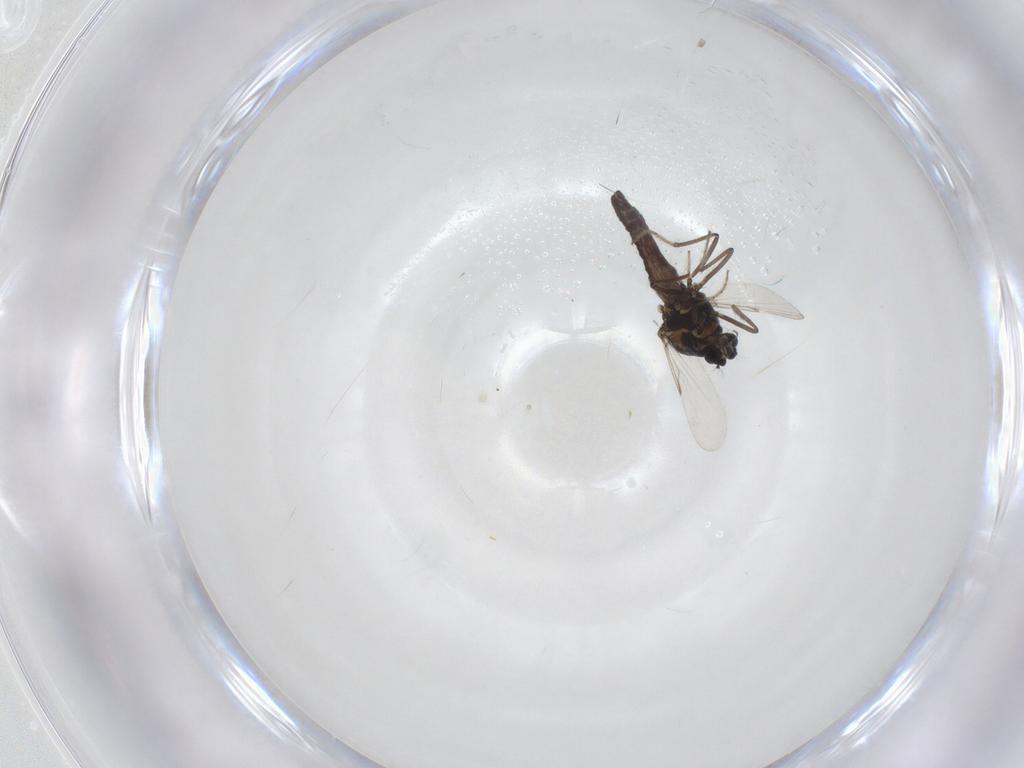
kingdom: Animalia
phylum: Arthropoda
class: Insecta
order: Diptera
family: Ceratopogonidae
